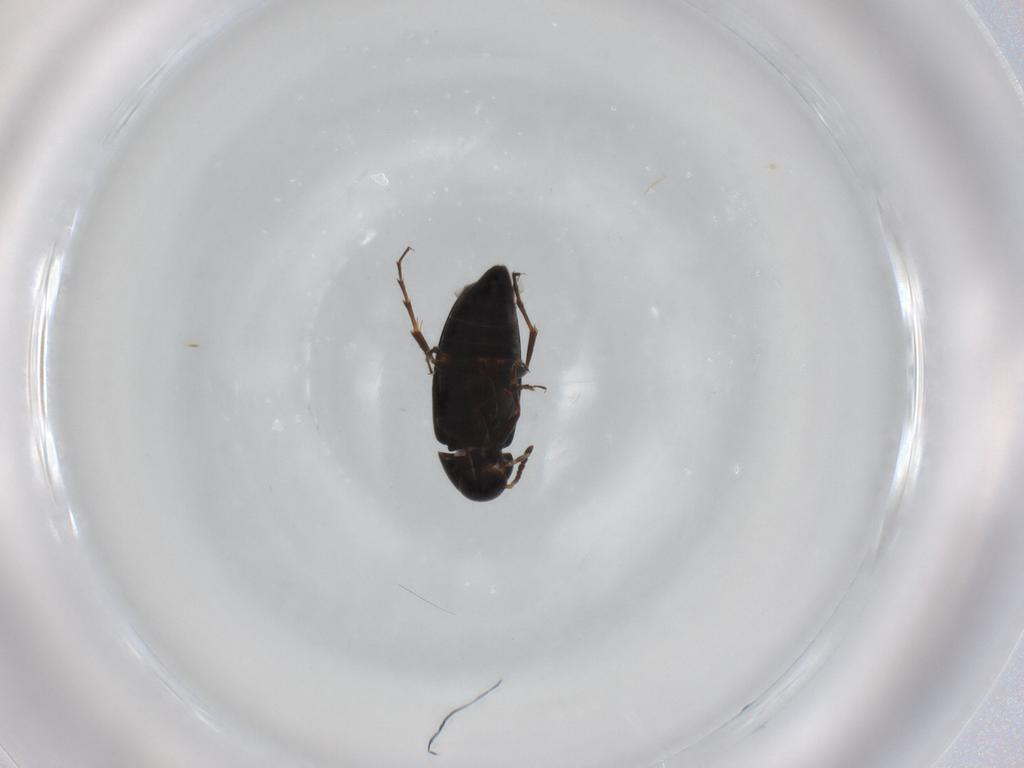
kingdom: Animalia
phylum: Arthropoda
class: Insecta
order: Coleoptera
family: Scraptiidae
